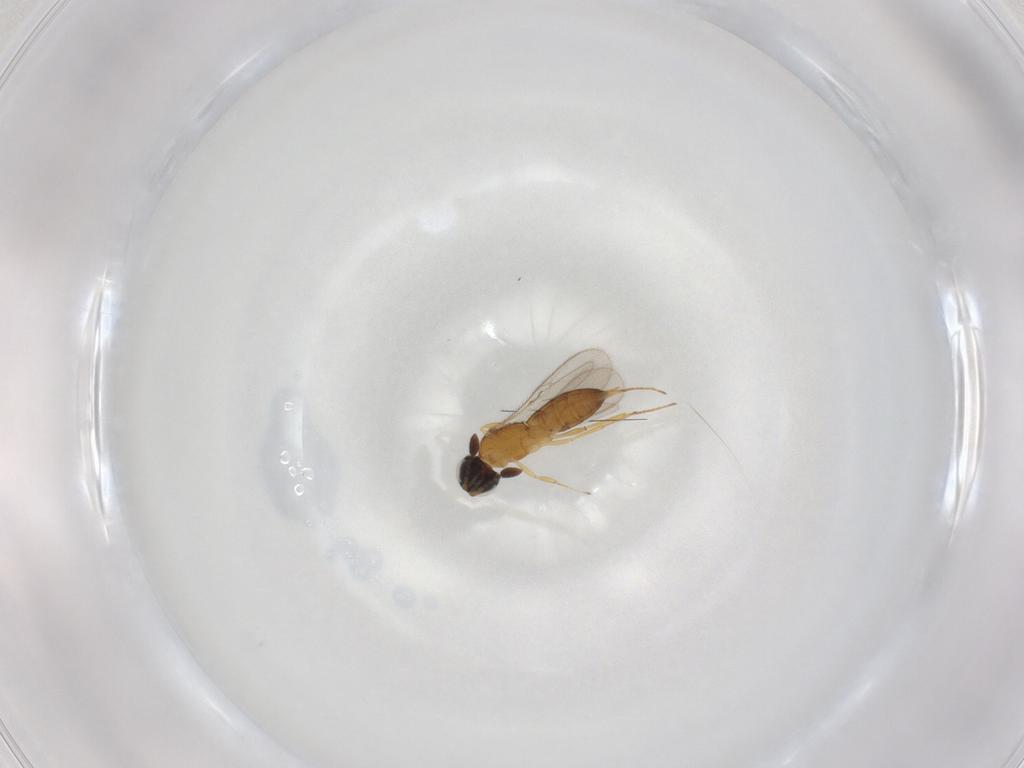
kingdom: Animalia
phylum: Arthropoda
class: Insecta
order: Hymenoptera
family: Scelionidae
